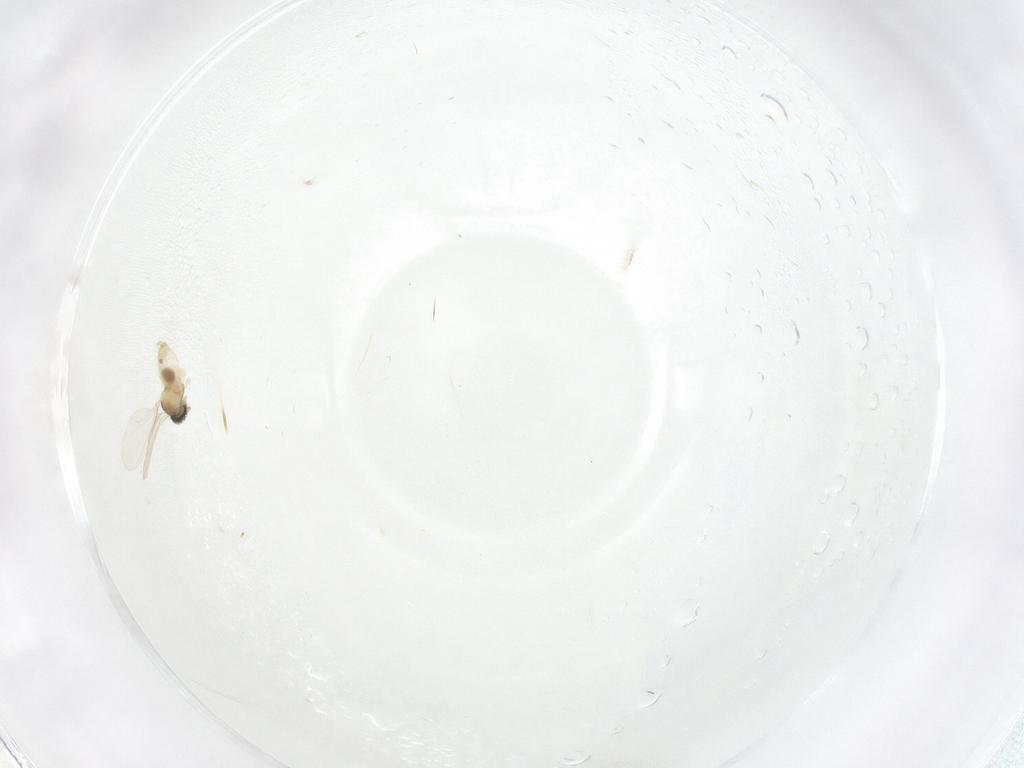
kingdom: Animalia
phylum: Arthropoda
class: Insecta
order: Diptera
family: Cecidomyiidae
